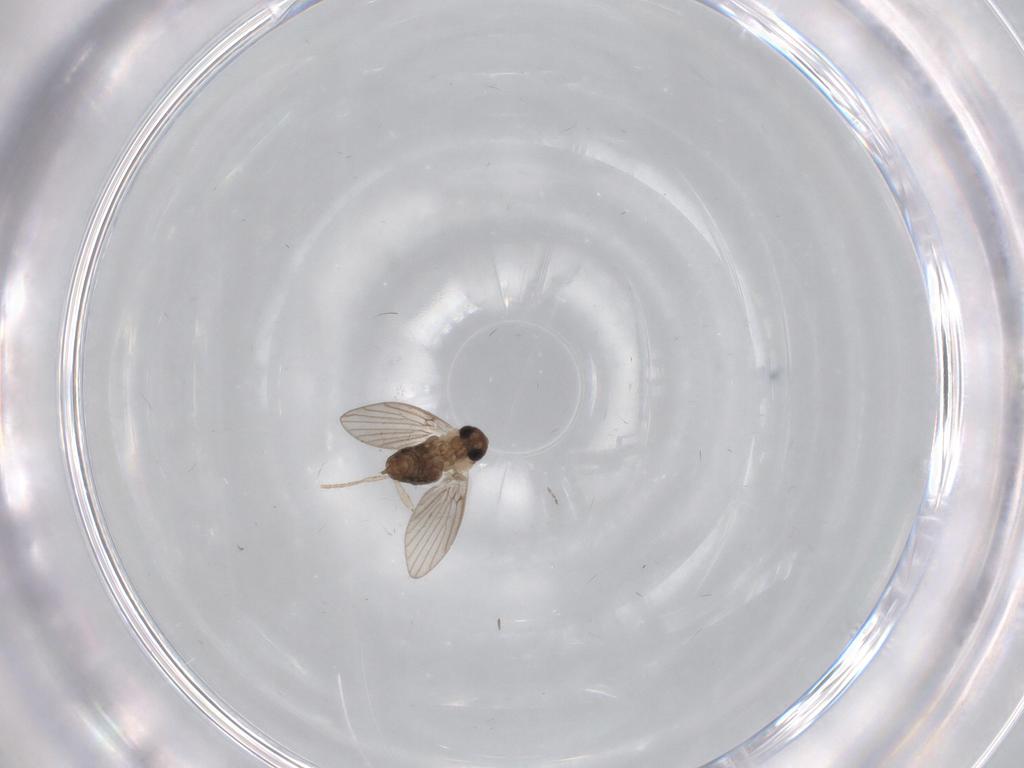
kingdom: Animalia
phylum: Arthropoda
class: Insecta
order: Diptera
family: Psychodidae
